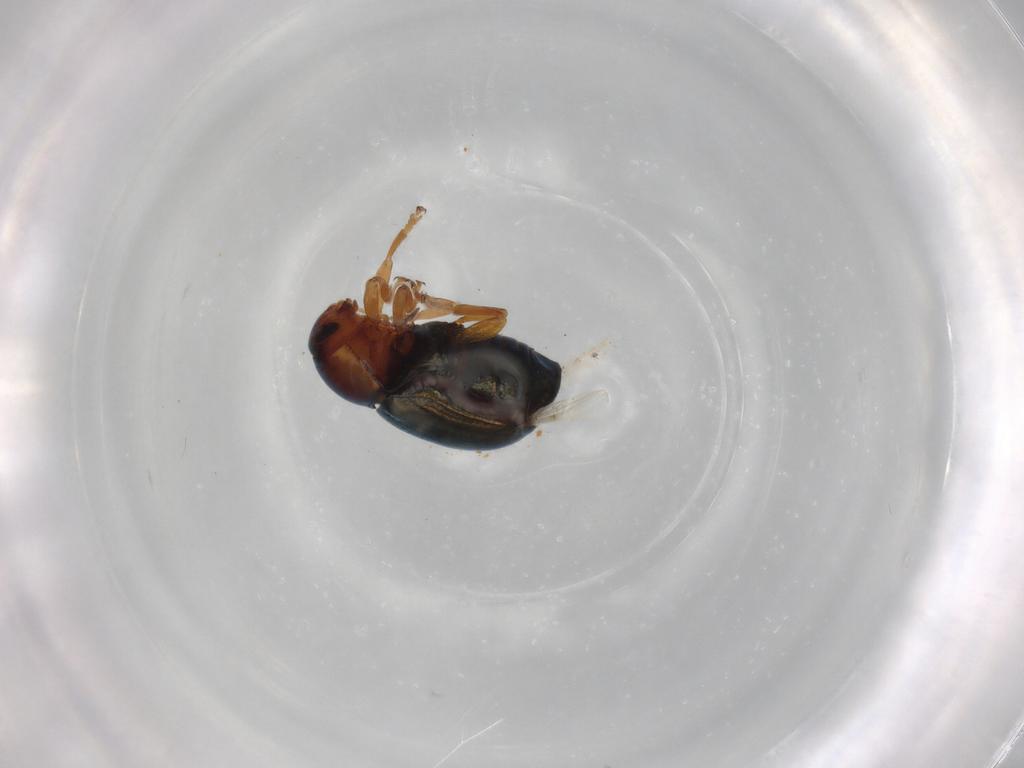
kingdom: Animalia
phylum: Arthropoda
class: Insecta
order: Coleoptera
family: Chrysomelidae
